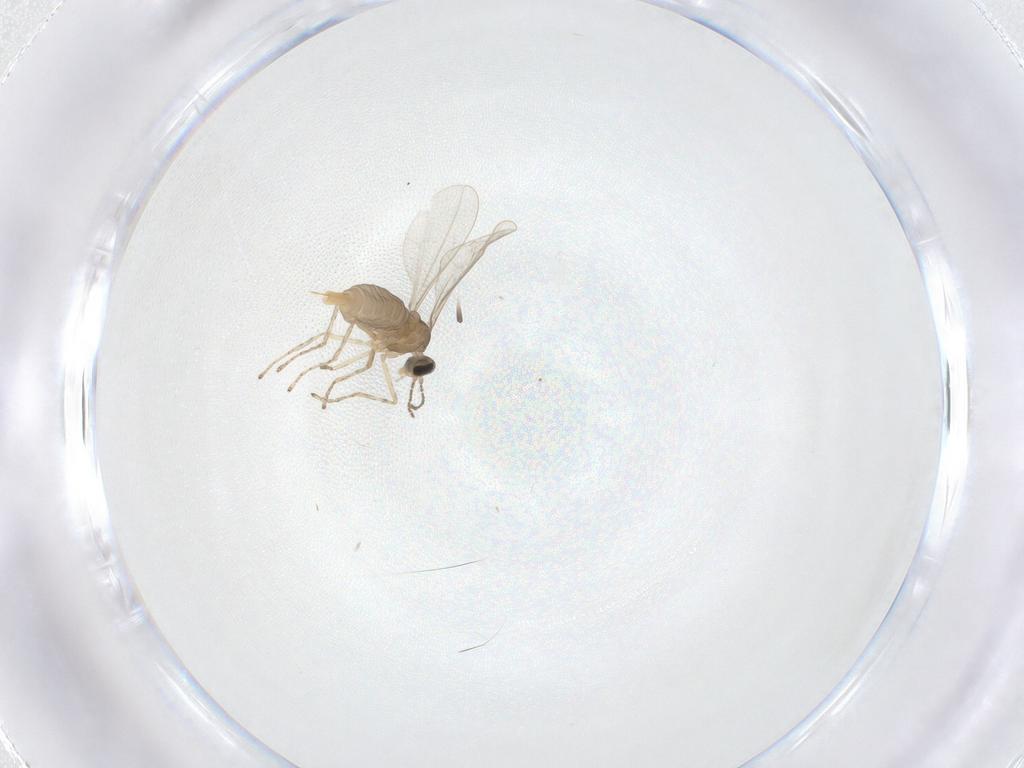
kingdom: Animalia
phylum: Arthropoda
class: Insecta
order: Diptera
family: Cecidomyiidae
